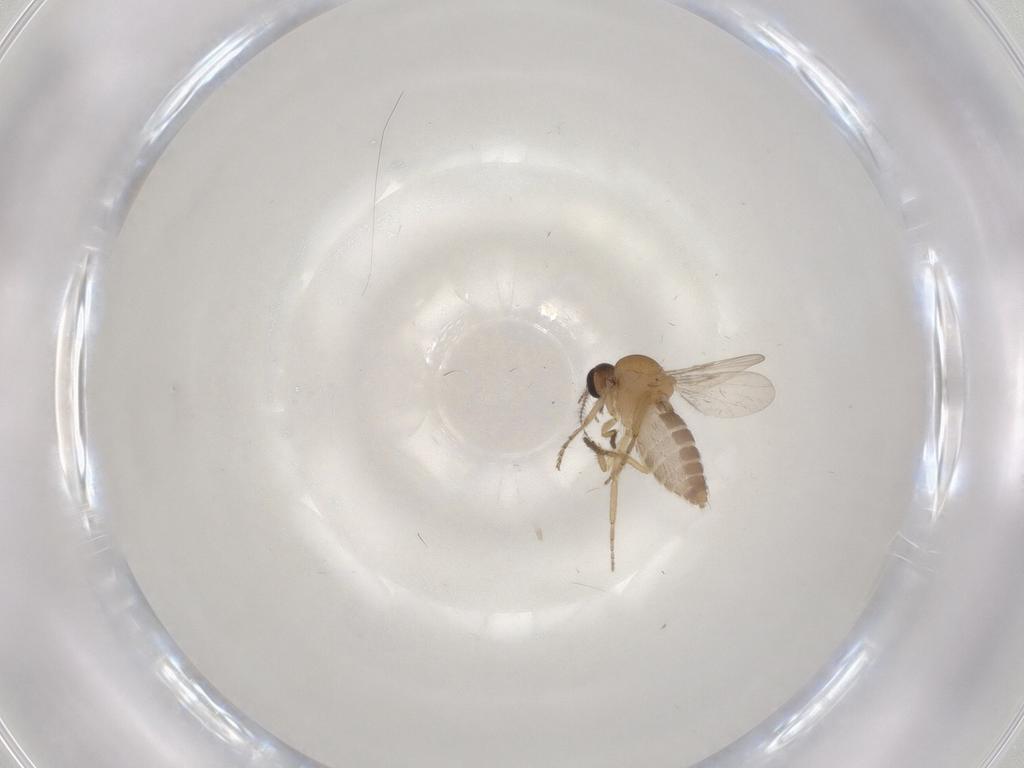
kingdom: Animalia
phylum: Arthropoda
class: Insecta
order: Diptera
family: Ceratopogonidae
